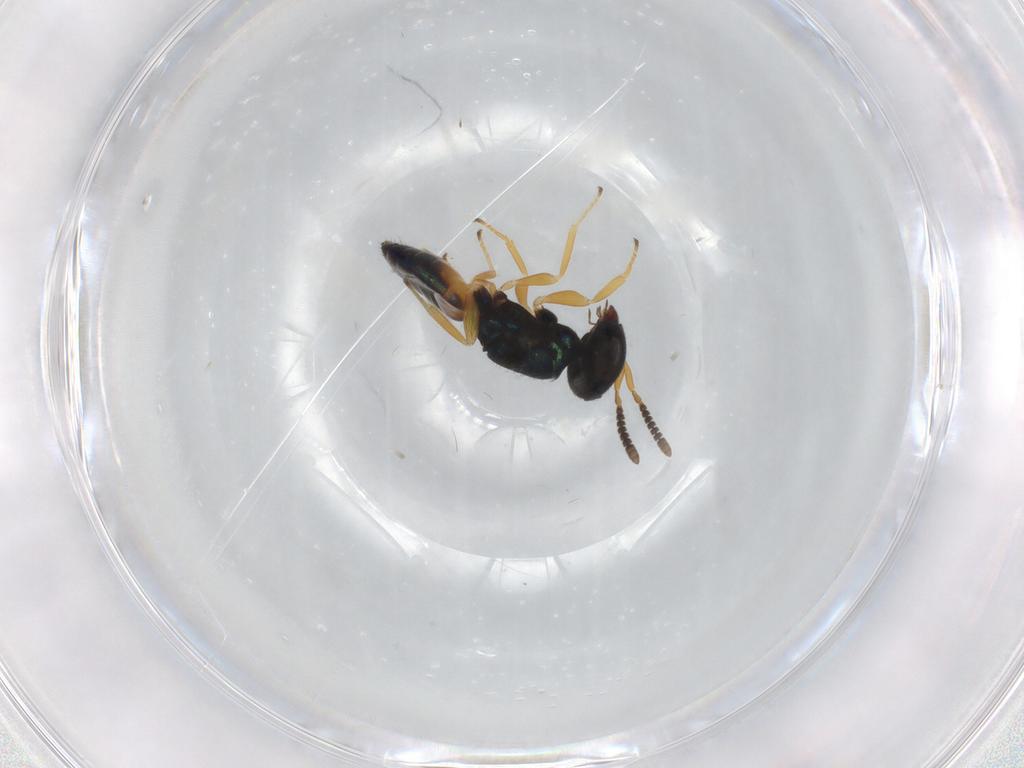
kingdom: Animalia
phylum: Arthropoda
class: Insecta
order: Hymenoptera
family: Pteromalidae
